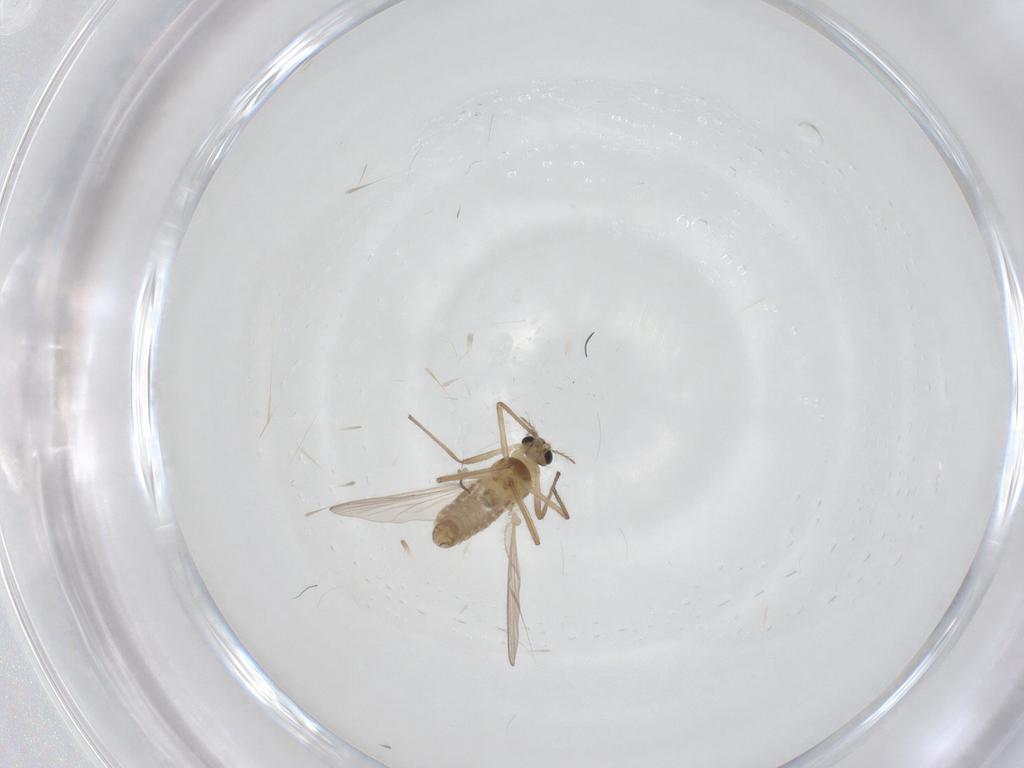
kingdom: Animalia
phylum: Arthropoda
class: Insecta
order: Diptera
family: Chironomidae
